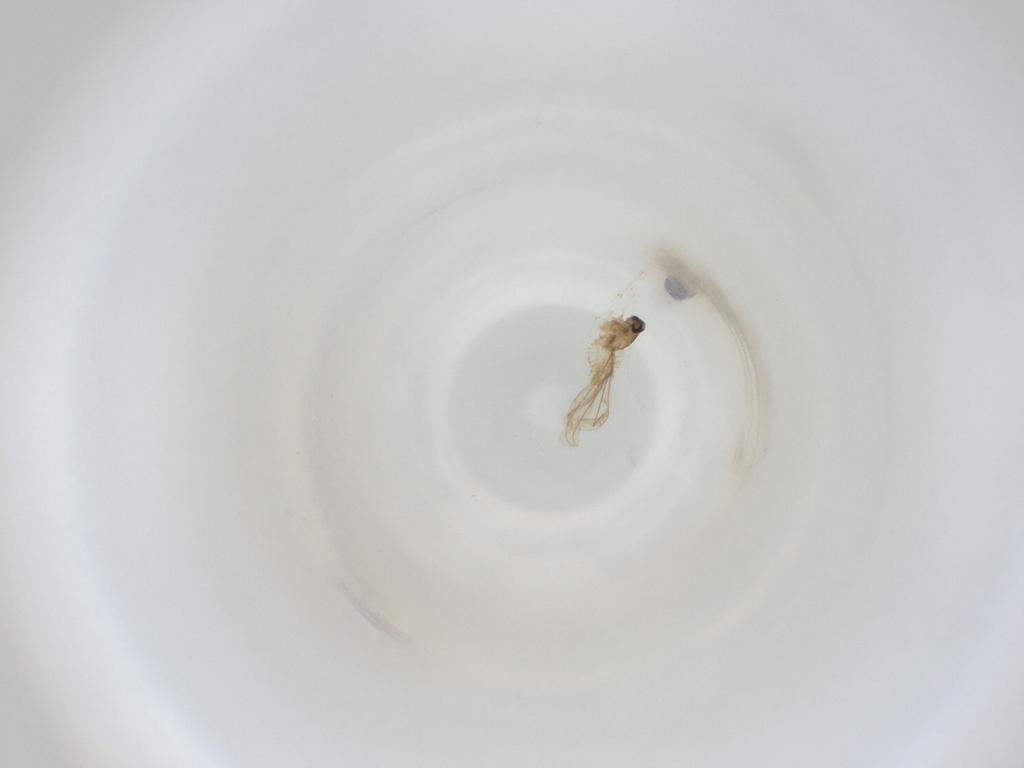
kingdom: Animalia
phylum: Arthropoda
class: Insecta
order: Diptera
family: Cecidomyiidae
